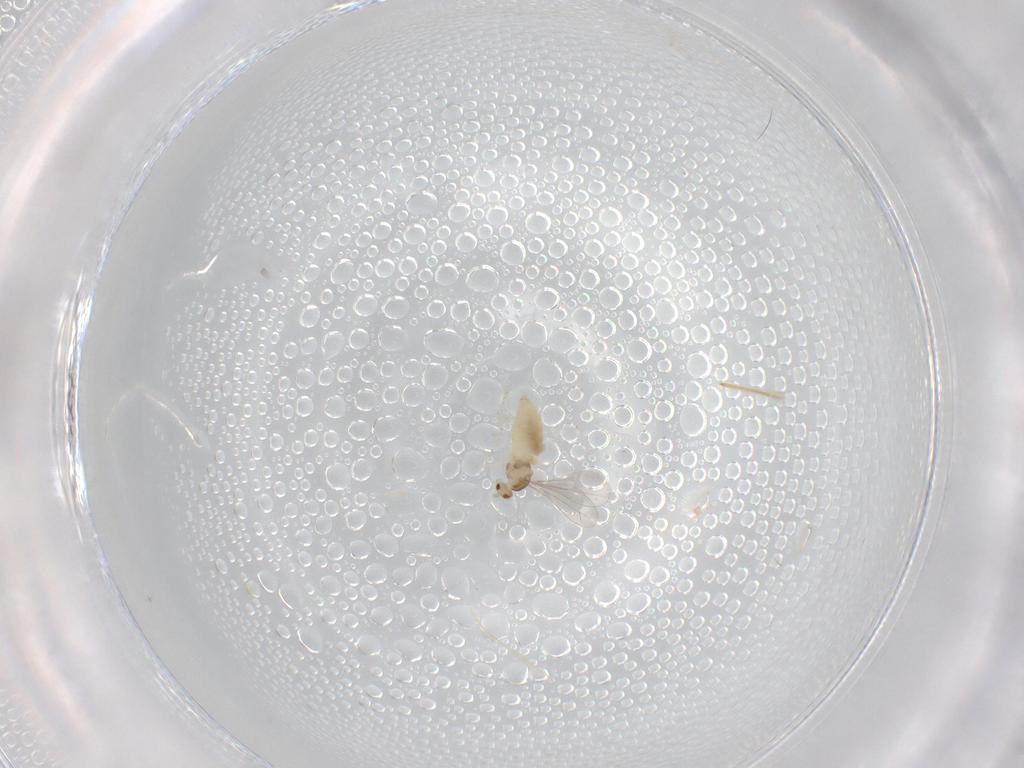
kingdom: Animalia
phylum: Arthropoda
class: Insecta
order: Diptera
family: Cecidomyiidae
